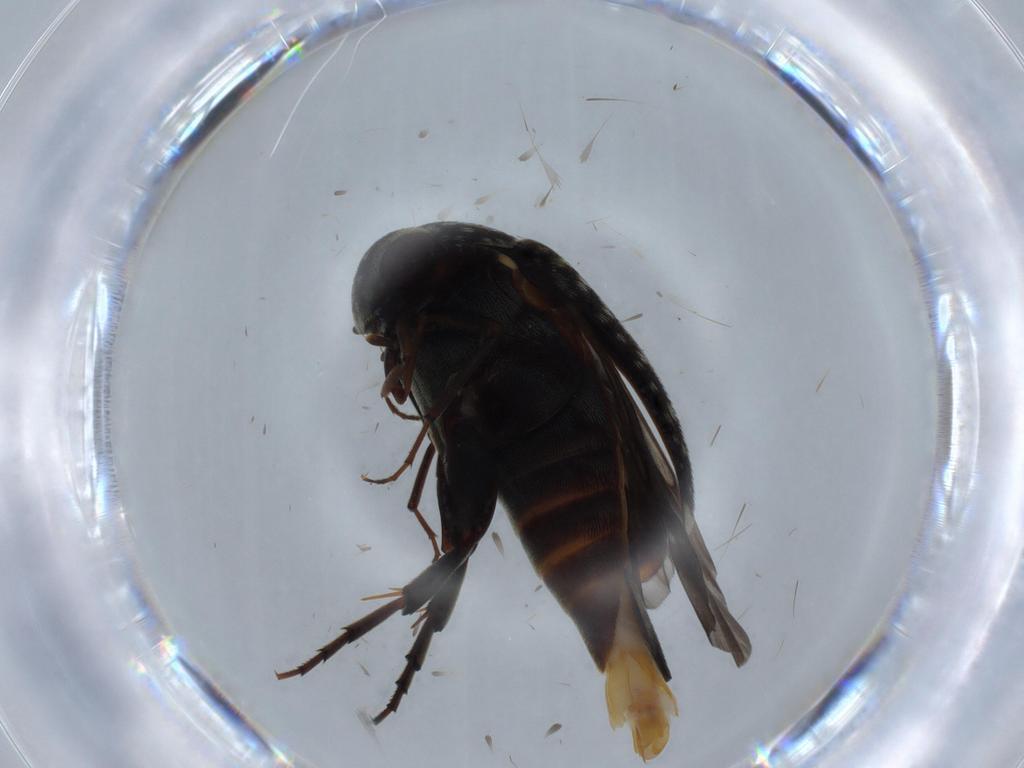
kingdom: Animalia
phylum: Arthropoda
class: Insecta
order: Coleoptera
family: Mordellidae
